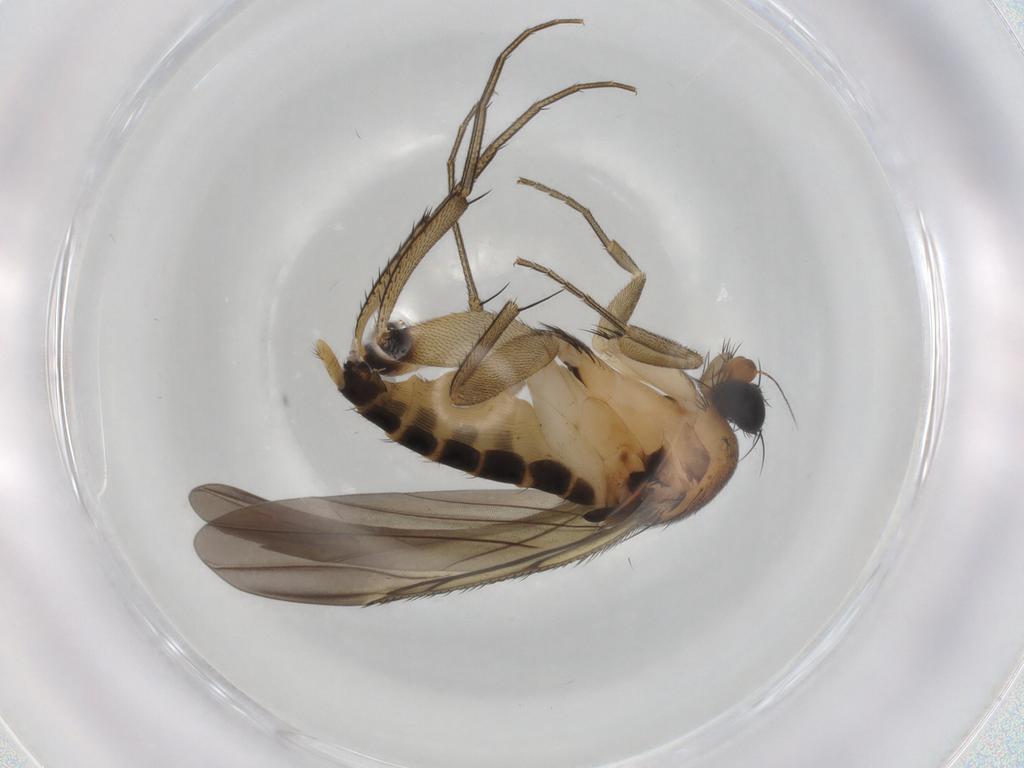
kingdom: Animalia
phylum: Arthropoda
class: Insecta
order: Diptera
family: Phoridae
